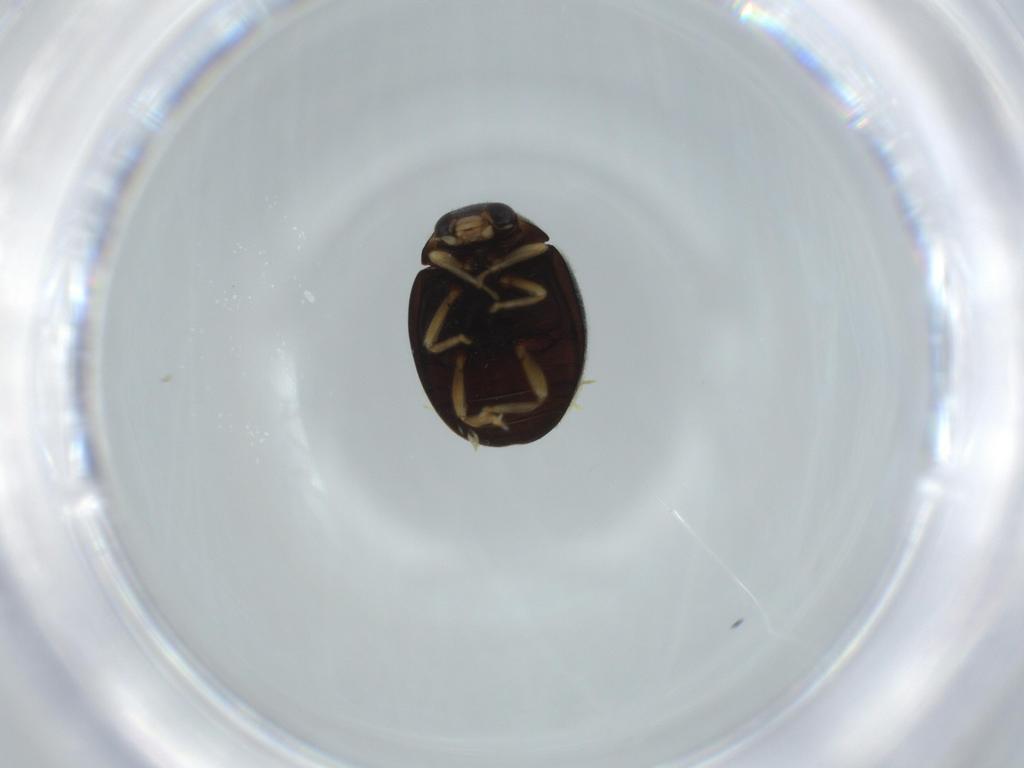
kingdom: Animalia
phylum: Arthropoda
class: Insecta
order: Coleoptera
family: Coccinellidae
